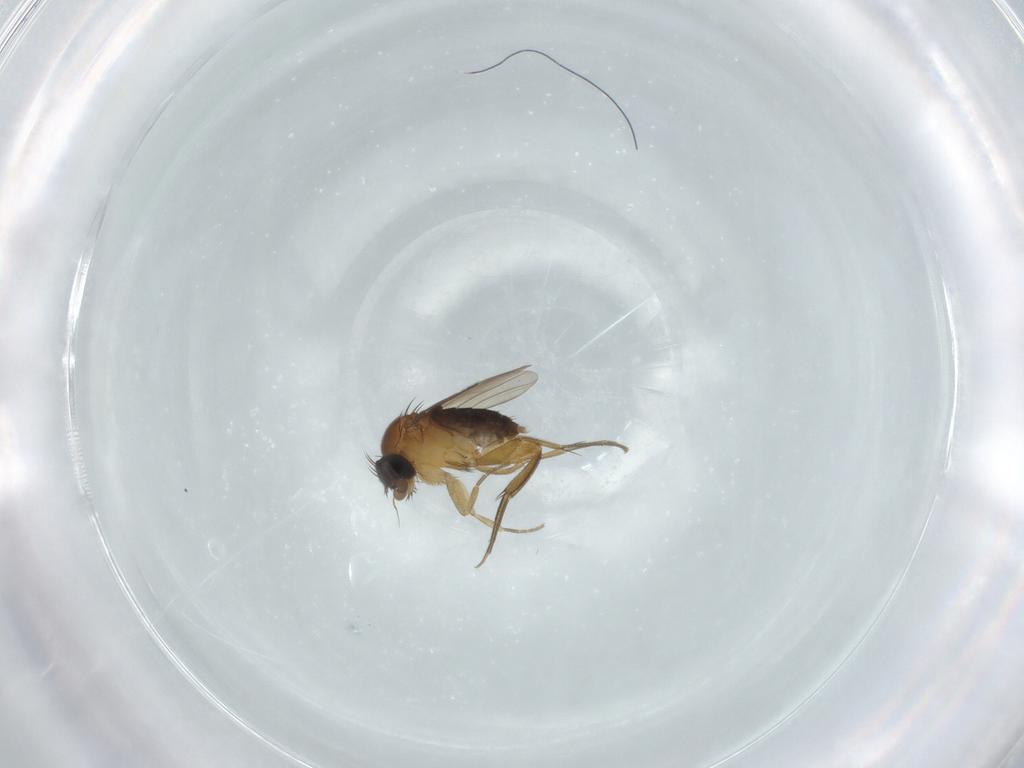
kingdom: Animalia
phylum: Arthropoda
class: Insecta
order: Diptera
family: Phoridae
